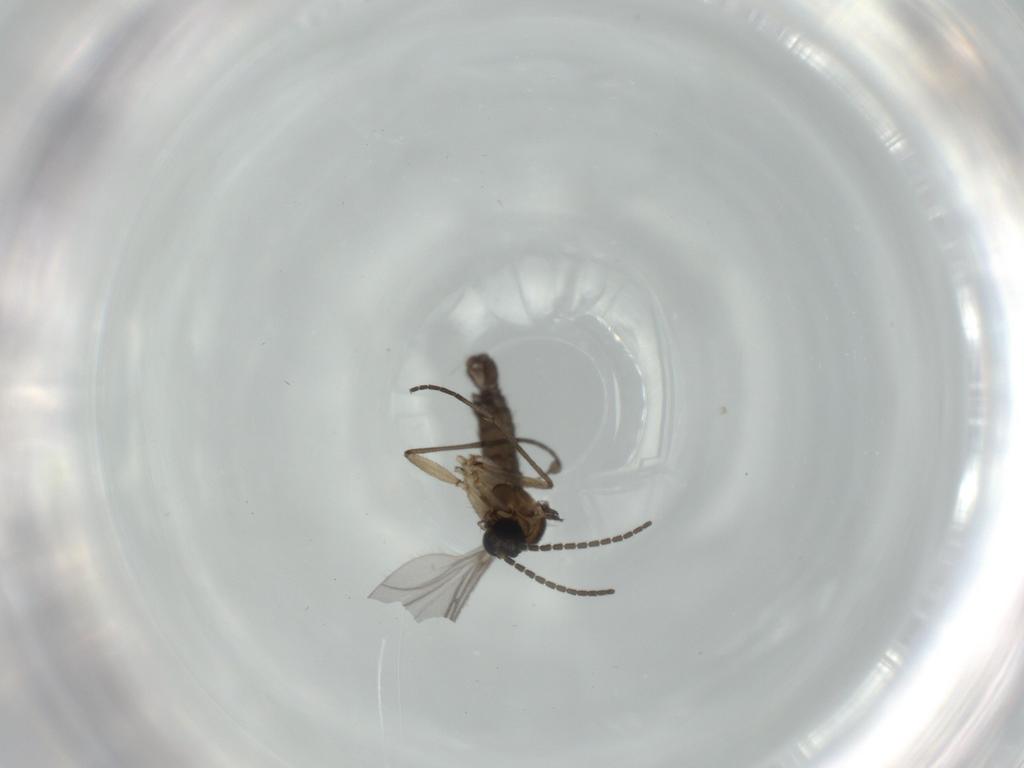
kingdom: Animalia
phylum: Arthropoda
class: Insecta
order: Diptera
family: Sciaridae
